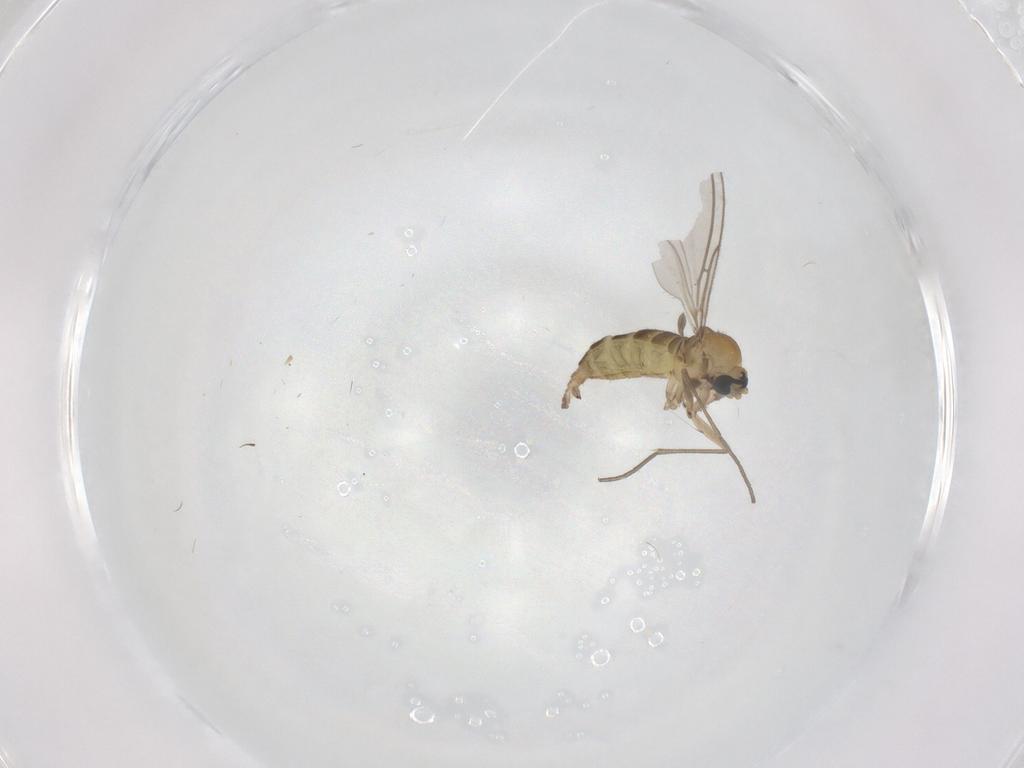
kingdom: Animalia
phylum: Arthropoda
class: Insecta
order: Diptera
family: Sciaridae
